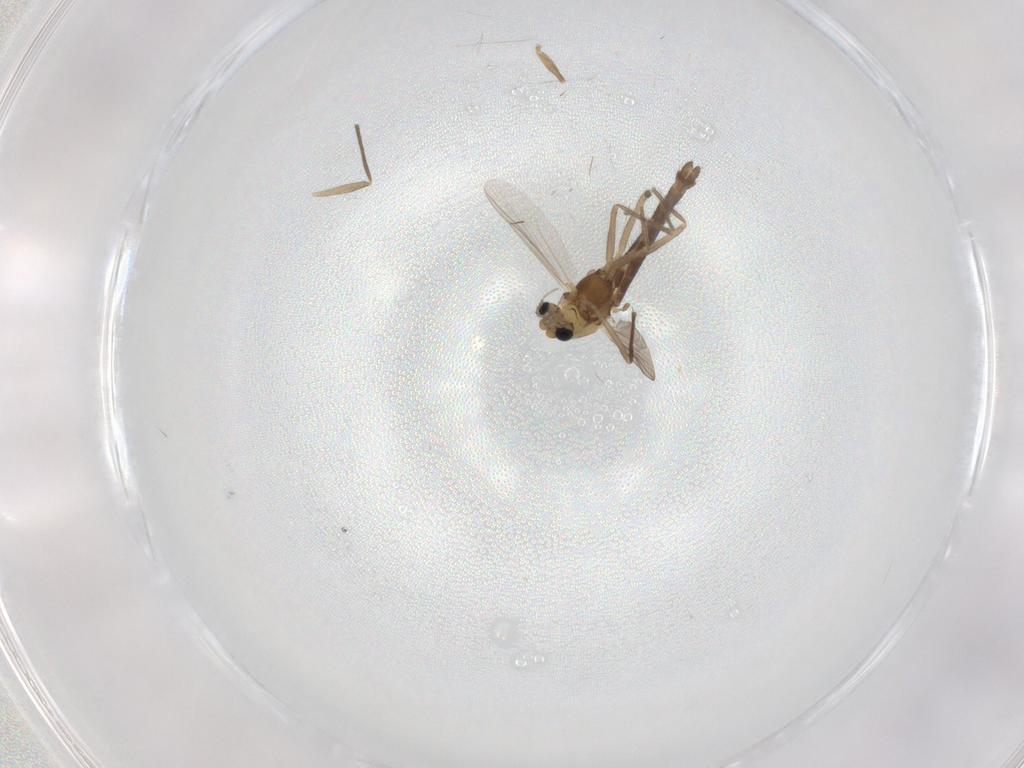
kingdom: Animalia
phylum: Arthropoda
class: Insecta
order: Diptera
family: Chironomidae
